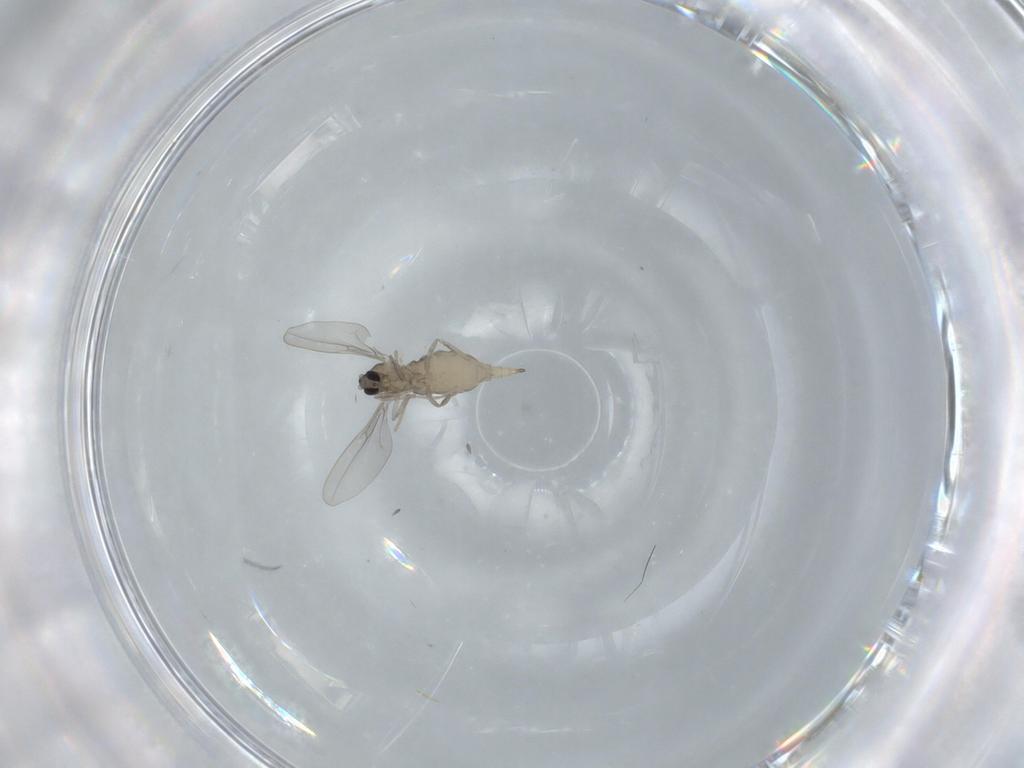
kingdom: Animalia
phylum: Arthropoda
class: Insecta
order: Diptera
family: Cecidomyiidae
